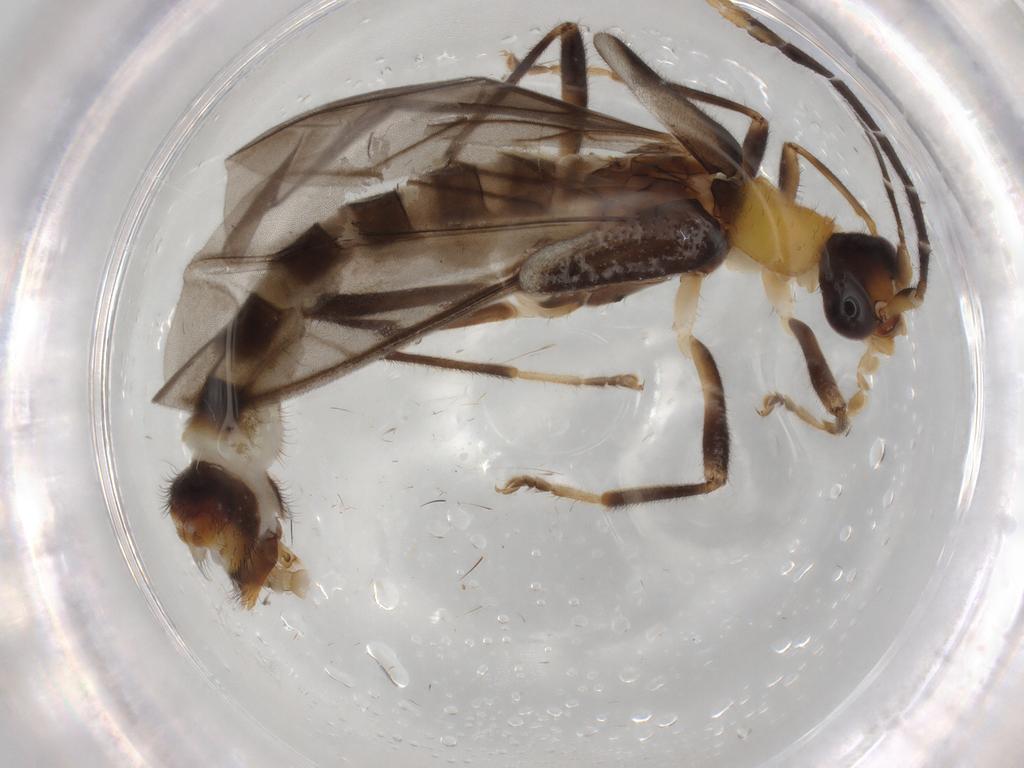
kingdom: Animalia
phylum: Arthropoda
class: Insecta
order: Coleoptera
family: Cantharidae
